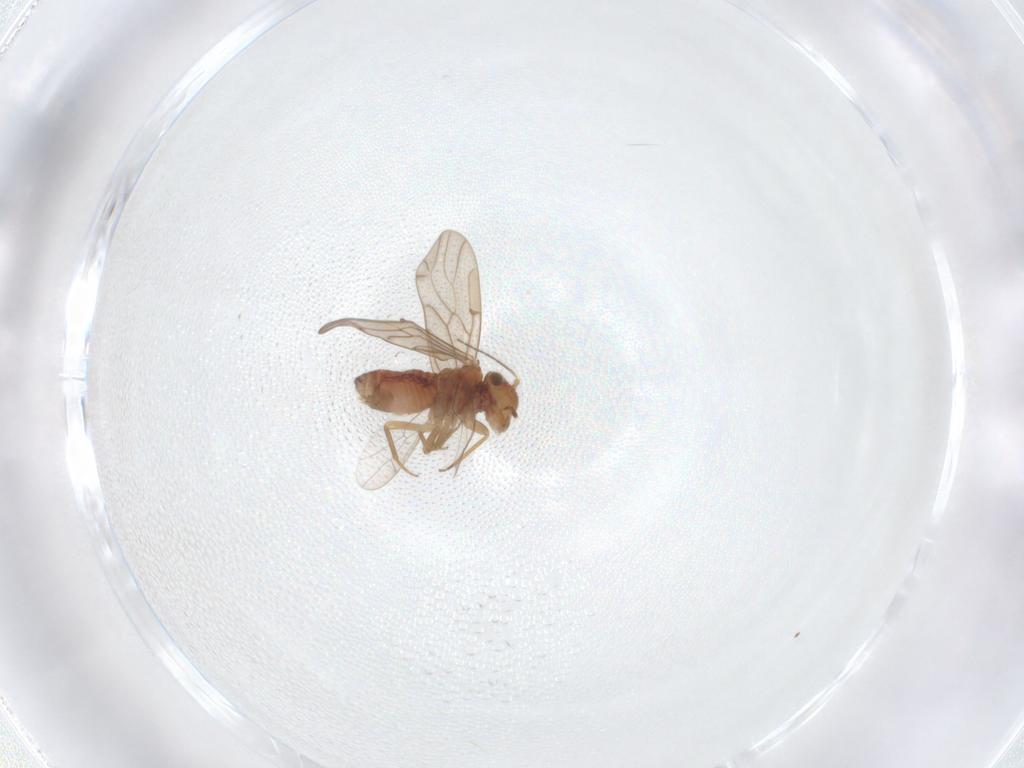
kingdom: Animalia
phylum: Arthropoda
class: Insecta
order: Psocodea
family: Ectopsocidae
